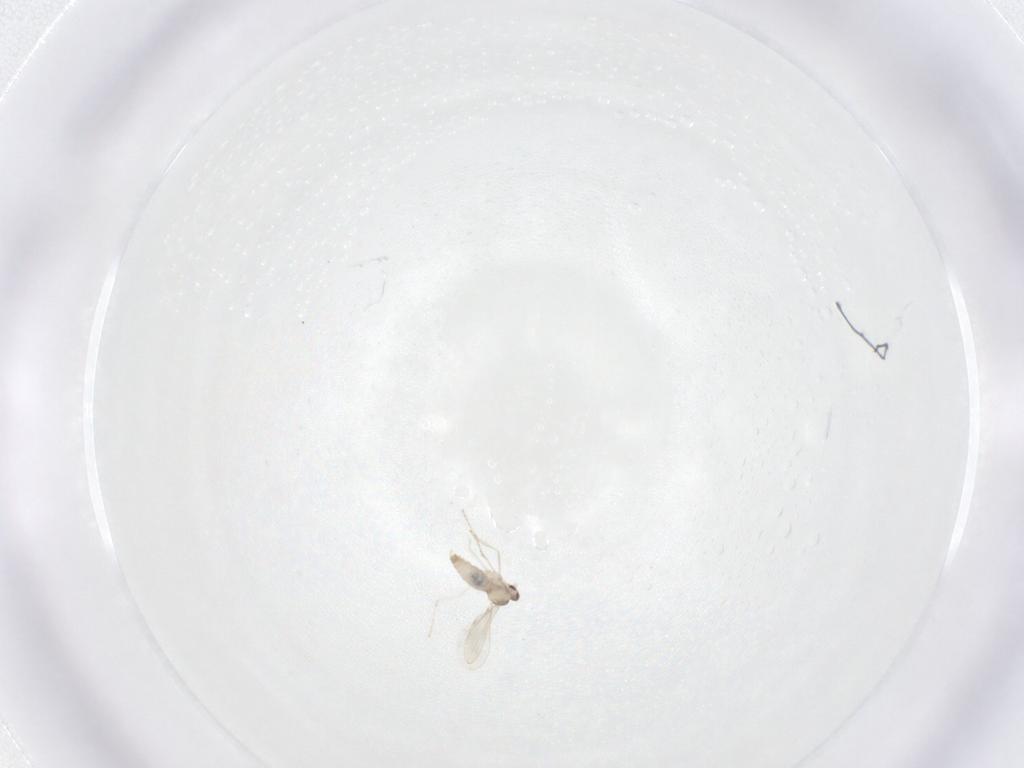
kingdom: Animalia
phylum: Arthropoda
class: Insecta
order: Diptera
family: Cecidomyiidae
